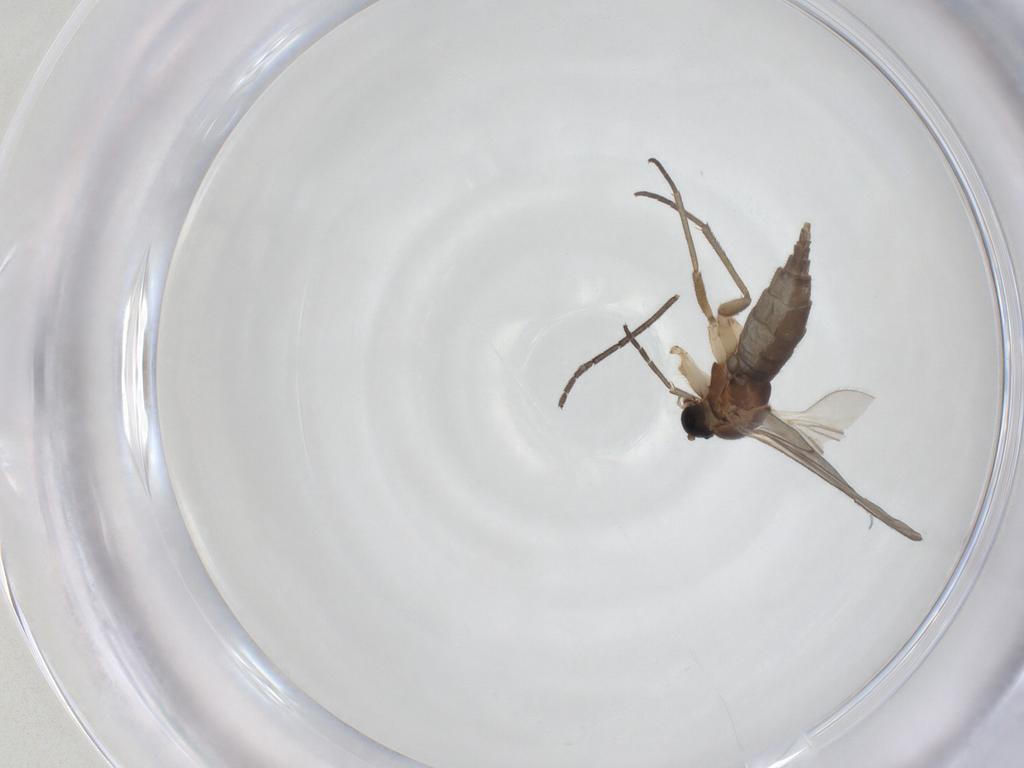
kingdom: Animalia
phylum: Arthropoda
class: Insecta
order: Diptera
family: Sciaridae
